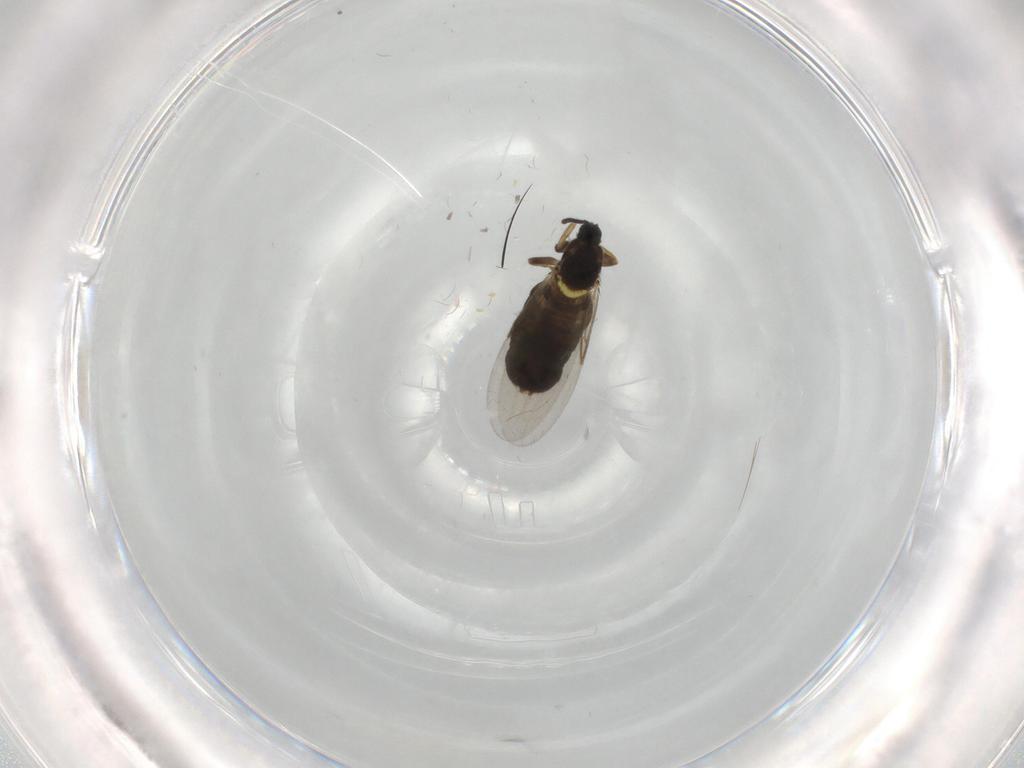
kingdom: Animalia
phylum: Arthropoda
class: Insecta
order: Diptera
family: Scatopsidae
